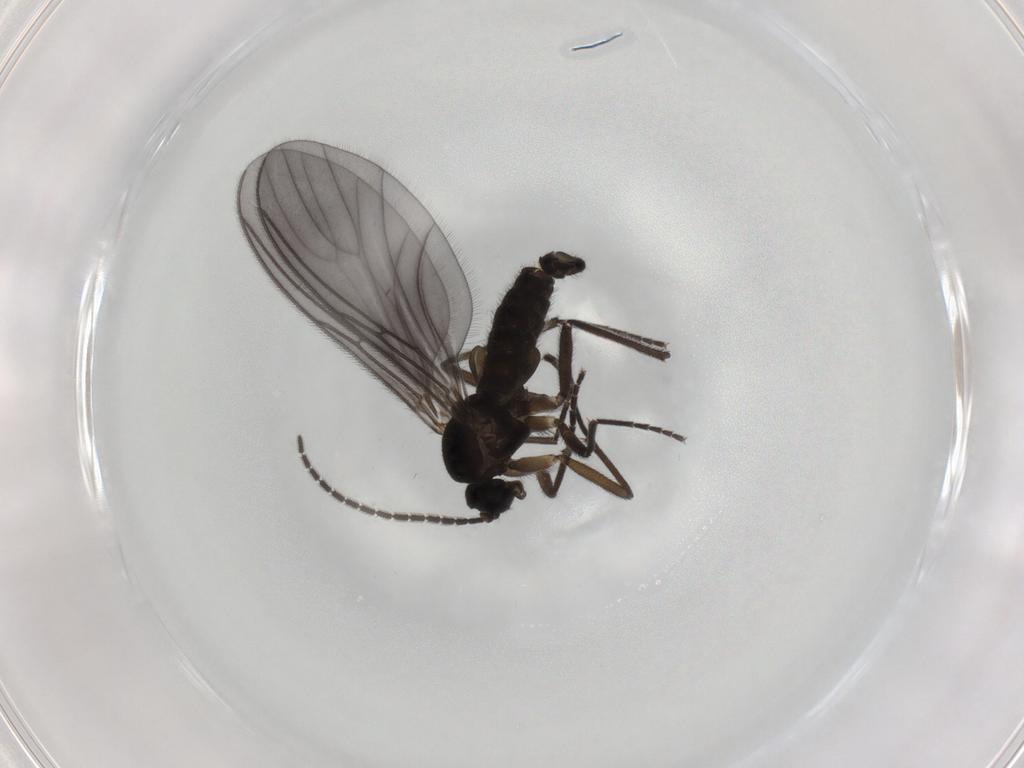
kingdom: Animalia
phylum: Arthropoda
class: Insecta
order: Diptera
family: Sciaridae
